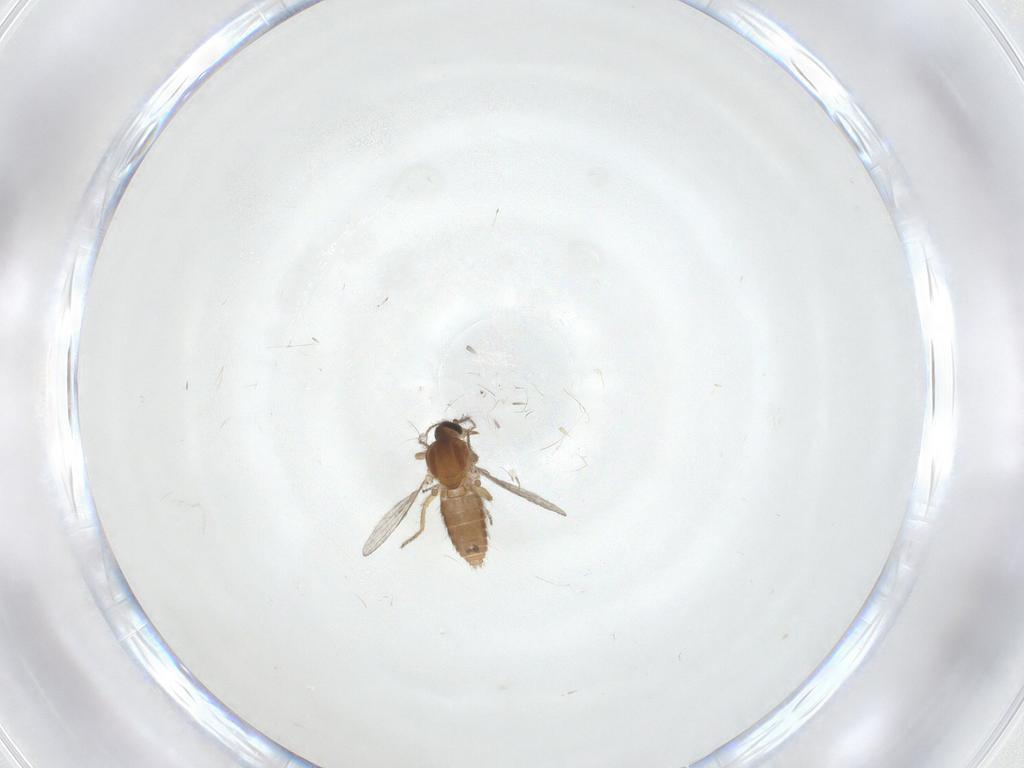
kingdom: Animalia
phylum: Arthropoda
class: Insecta
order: Diptera
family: Ceratopogonidae
